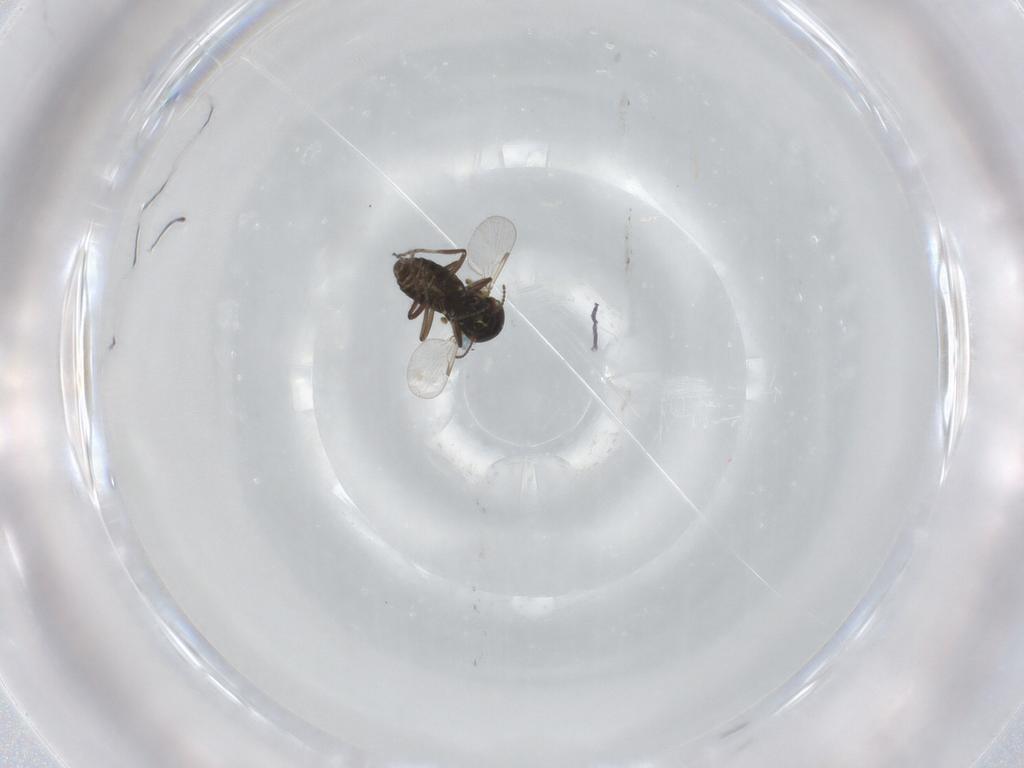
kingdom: Animalia
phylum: Arthropoda
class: Insecta
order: Diptera
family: Ceratopogonidae
